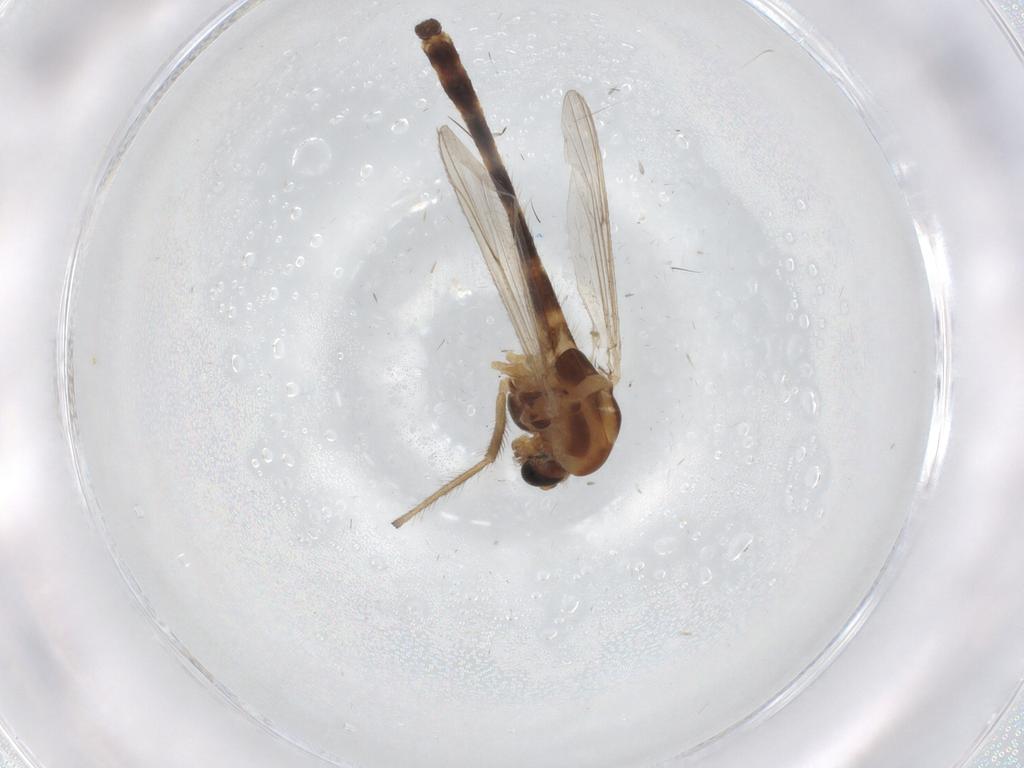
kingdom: Animalia
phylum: Arthropoda
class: Insecta
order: Diptera
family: Chironomidae
